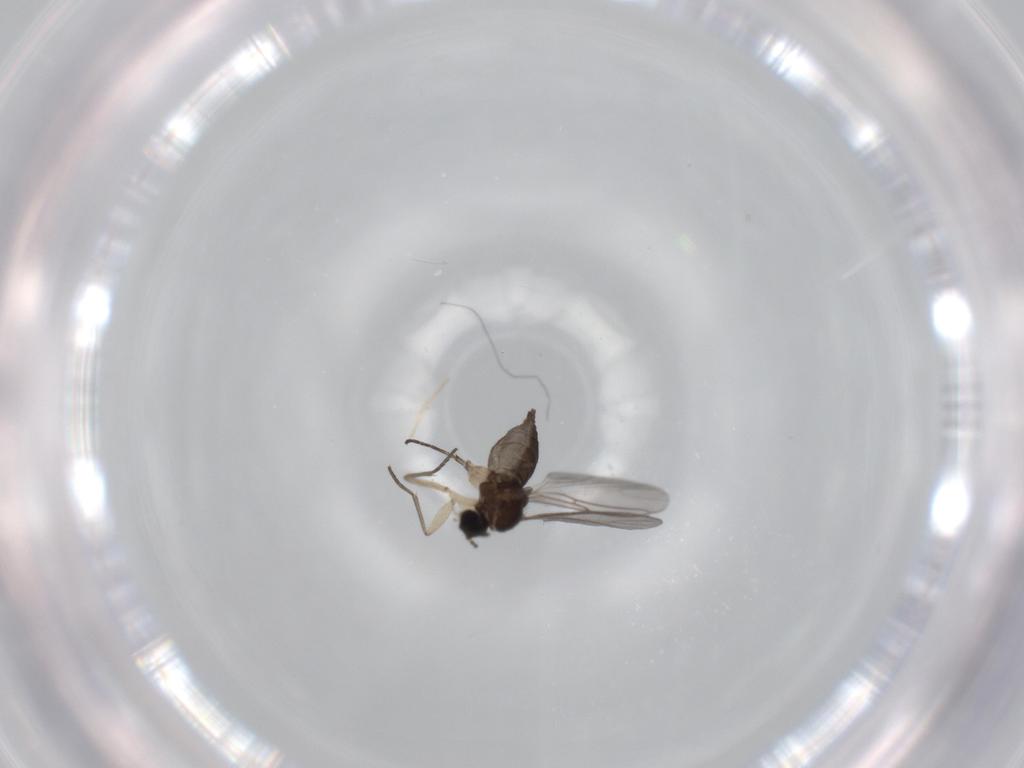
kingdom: Animalia
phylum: Arthropoda
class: Insecta
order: Diptera
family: Sciaridae
